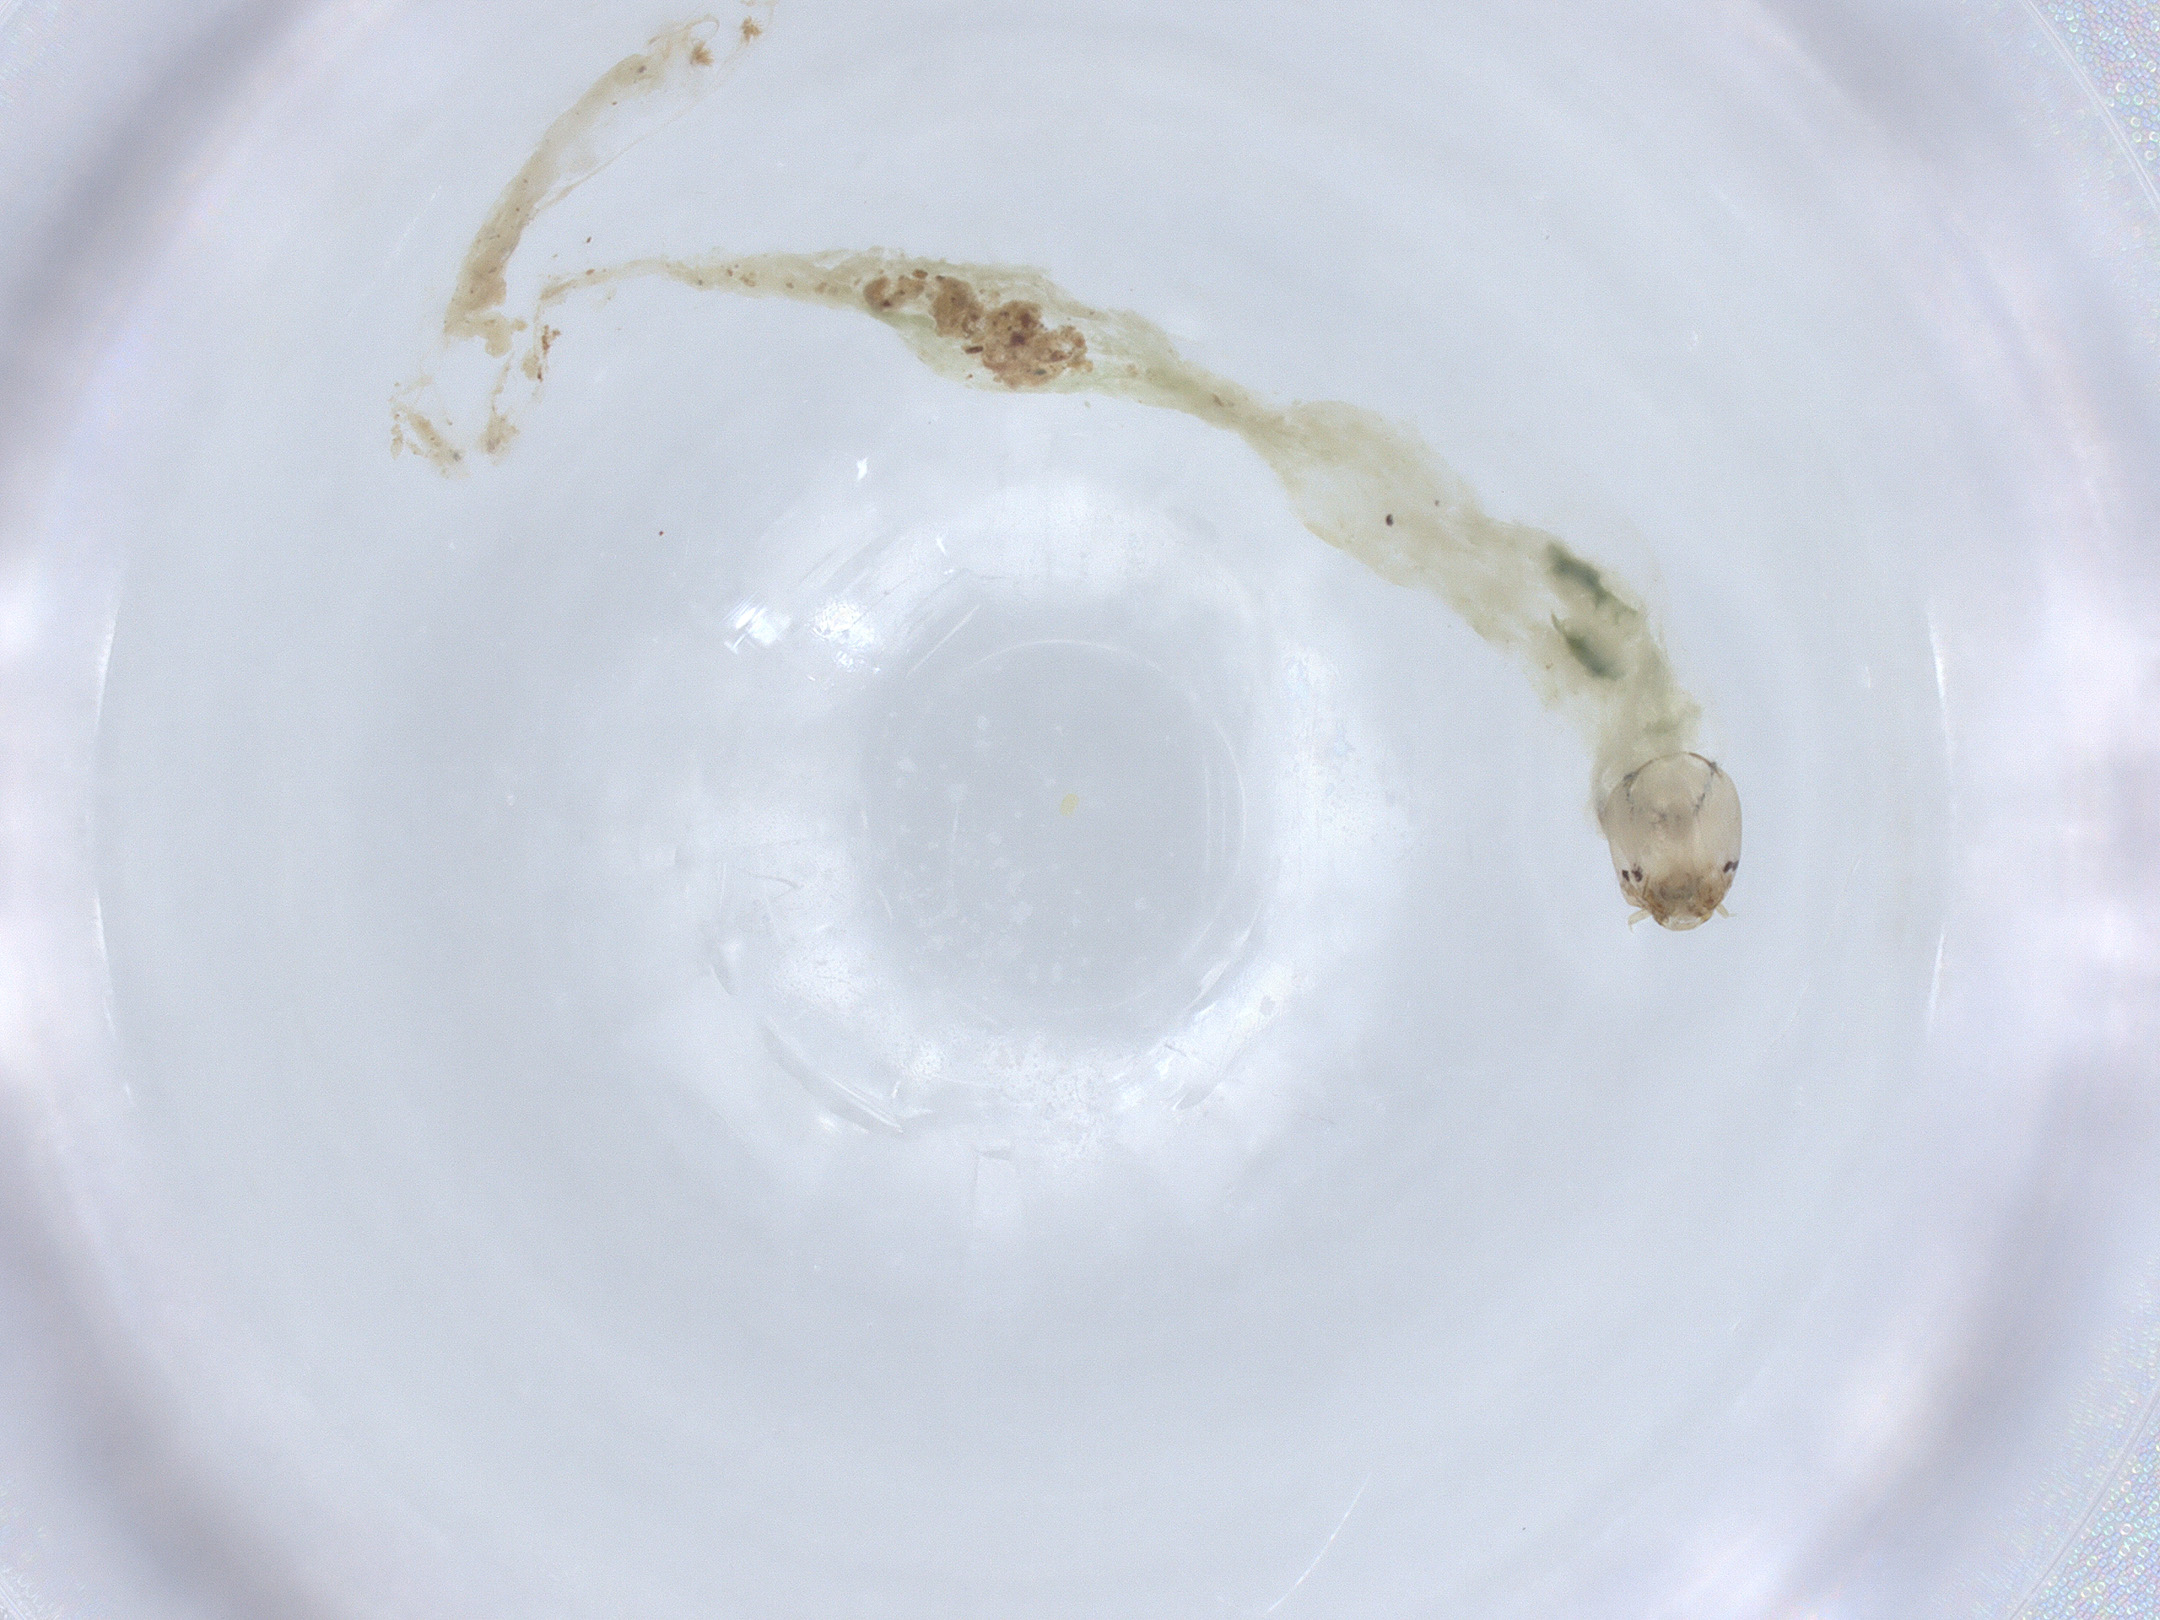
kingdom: Animalia
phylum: Arthropoda
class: Insecta
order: Diptera
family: Chironomidae
